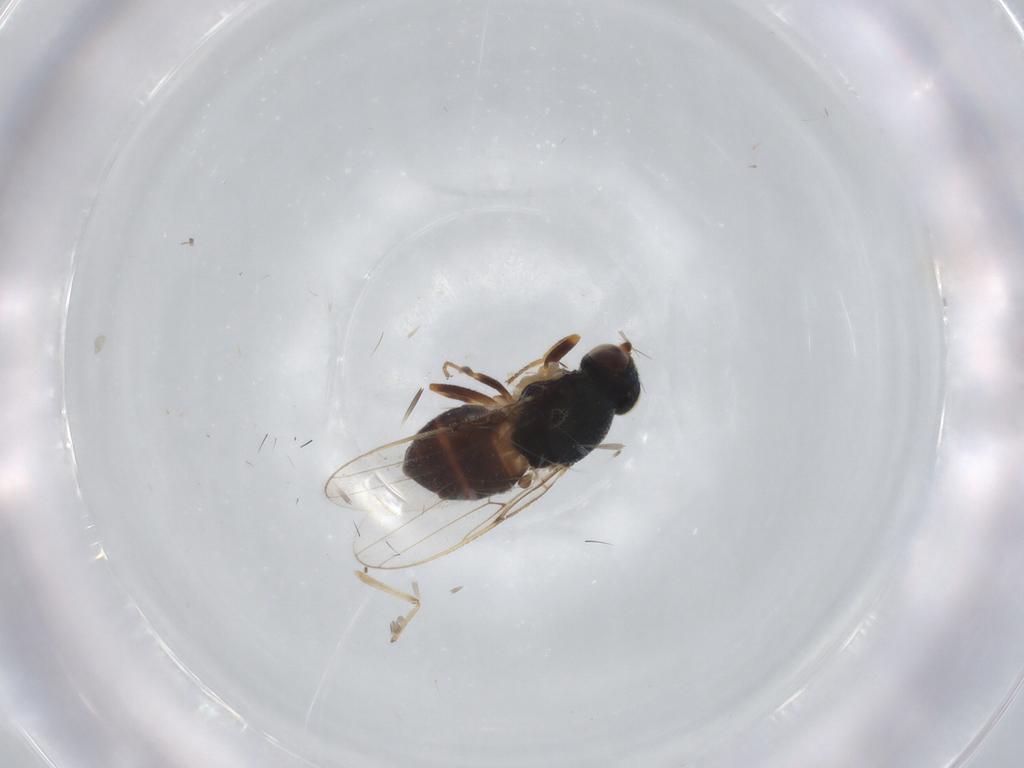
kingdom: Animalia
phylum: Arthropoda
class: Insecta
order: Diptera
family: Chloropidae
